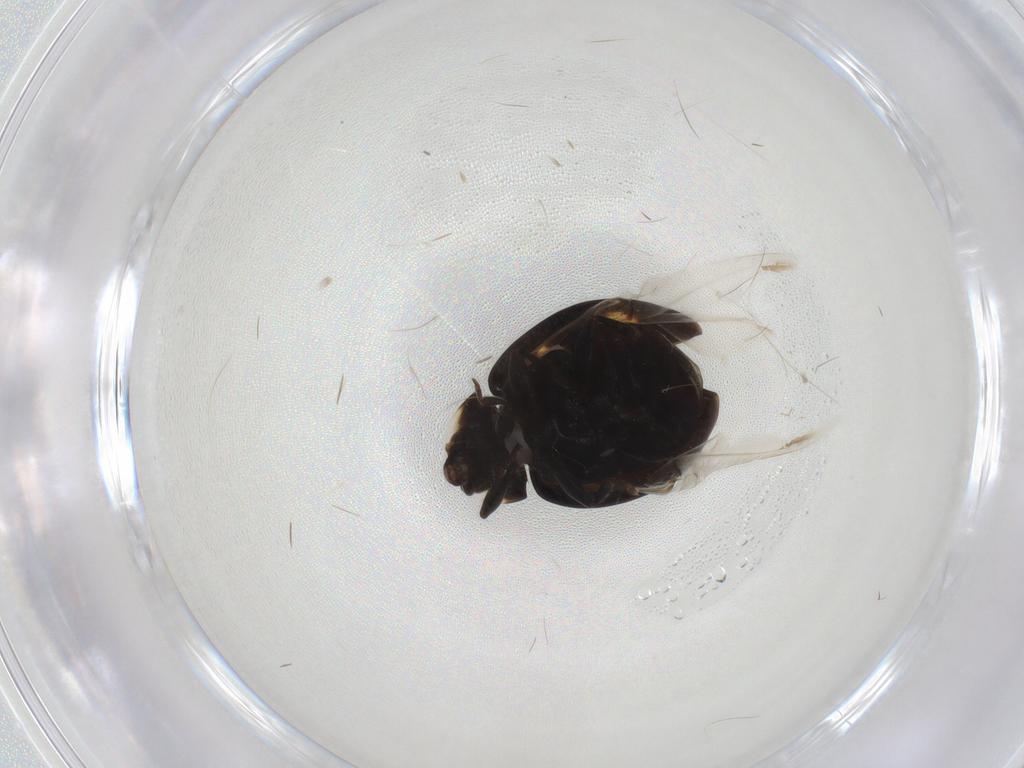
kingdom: Animalia
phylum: Arthropoda
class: Insecta
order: Coleoptera
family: Coccinellidae
